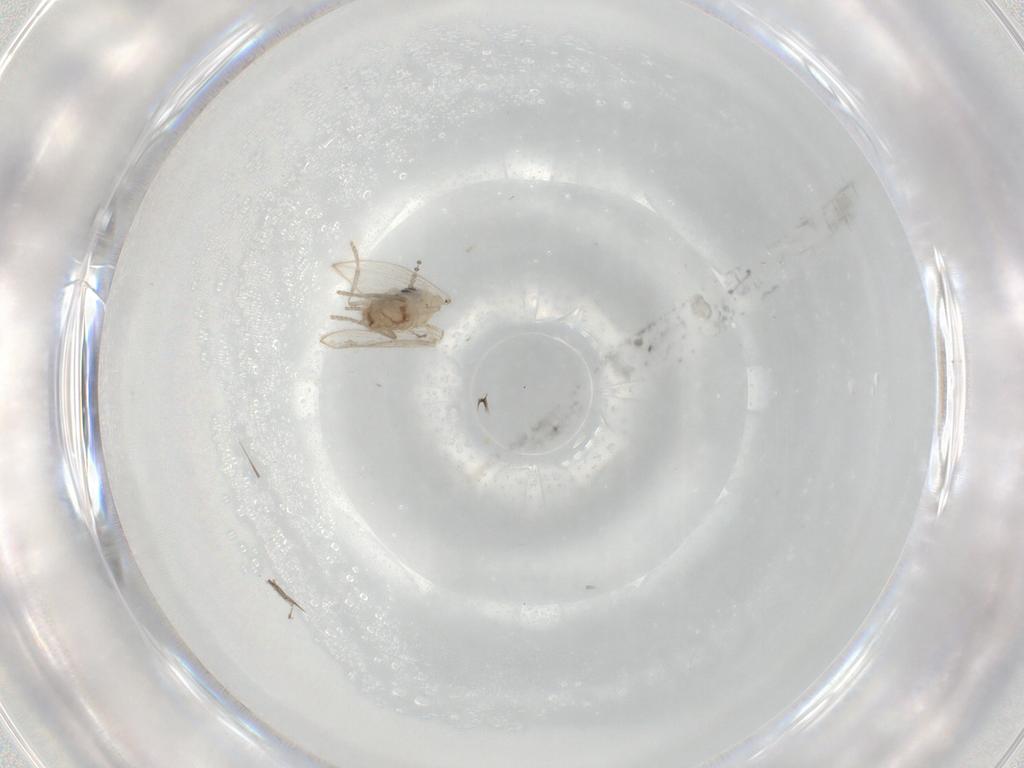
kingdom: Animalia
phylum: Arthropoda
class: Insecta
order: Diptera
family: Psychodidae
